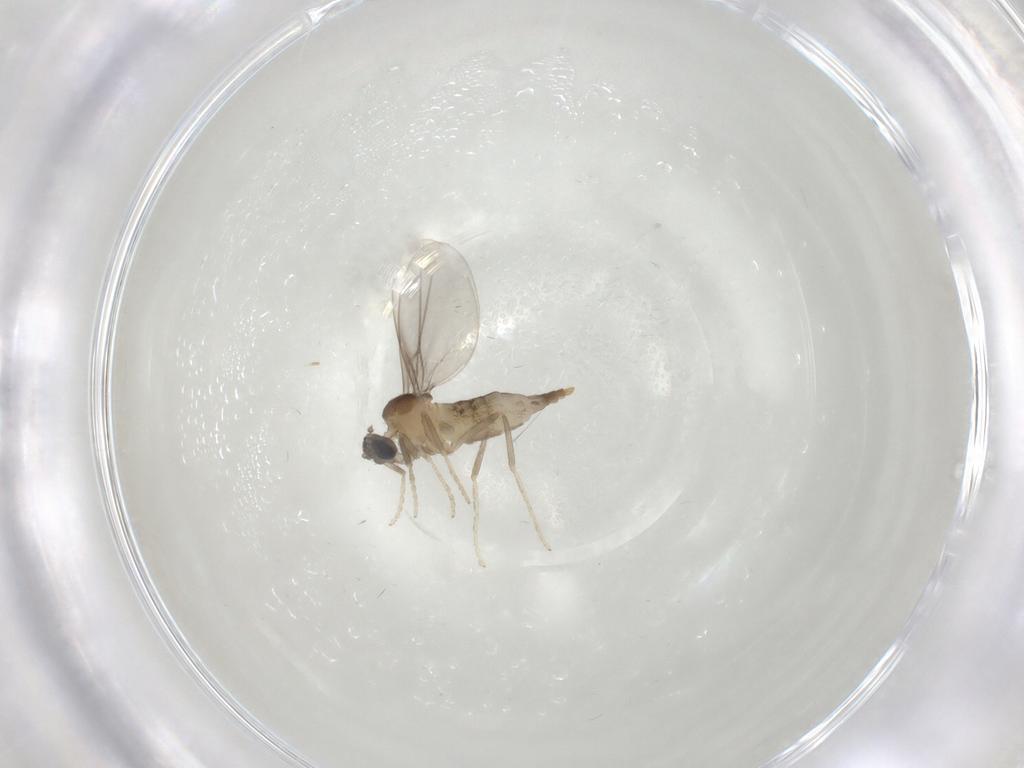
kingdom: Animalia
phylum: Arthropoda
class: Insecta
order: Diptera
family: Cecidomyiidae
